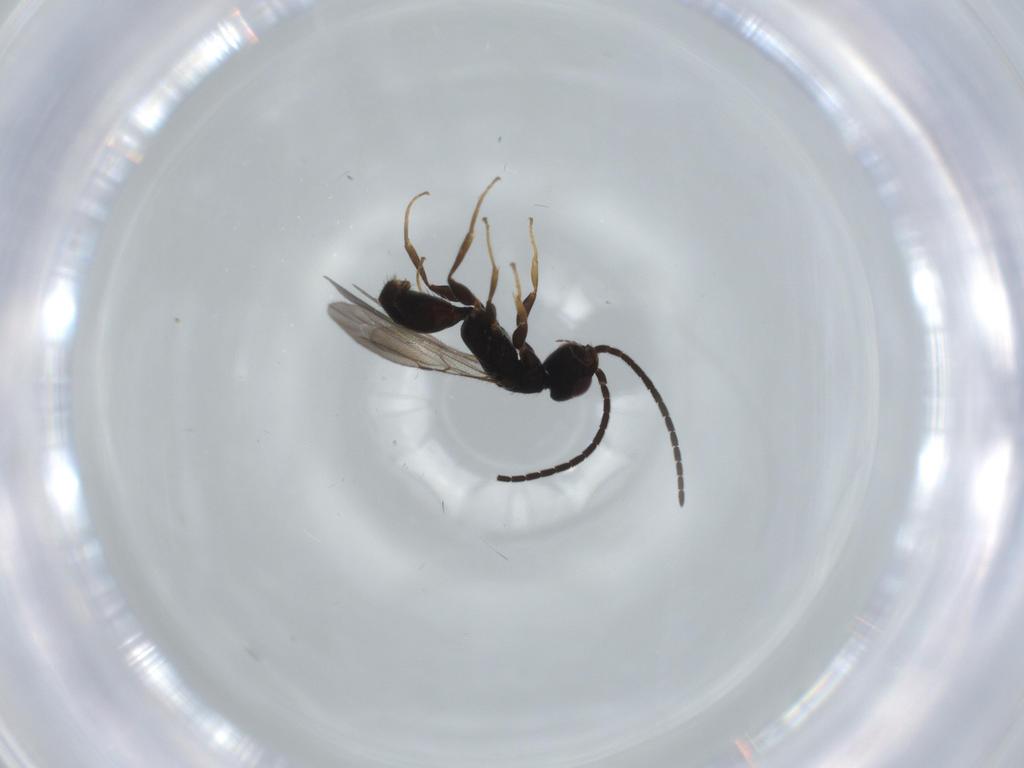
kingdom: Animalia
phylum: Arthropoda
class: Insecta
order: Hymenoptera
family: Bethylidae
